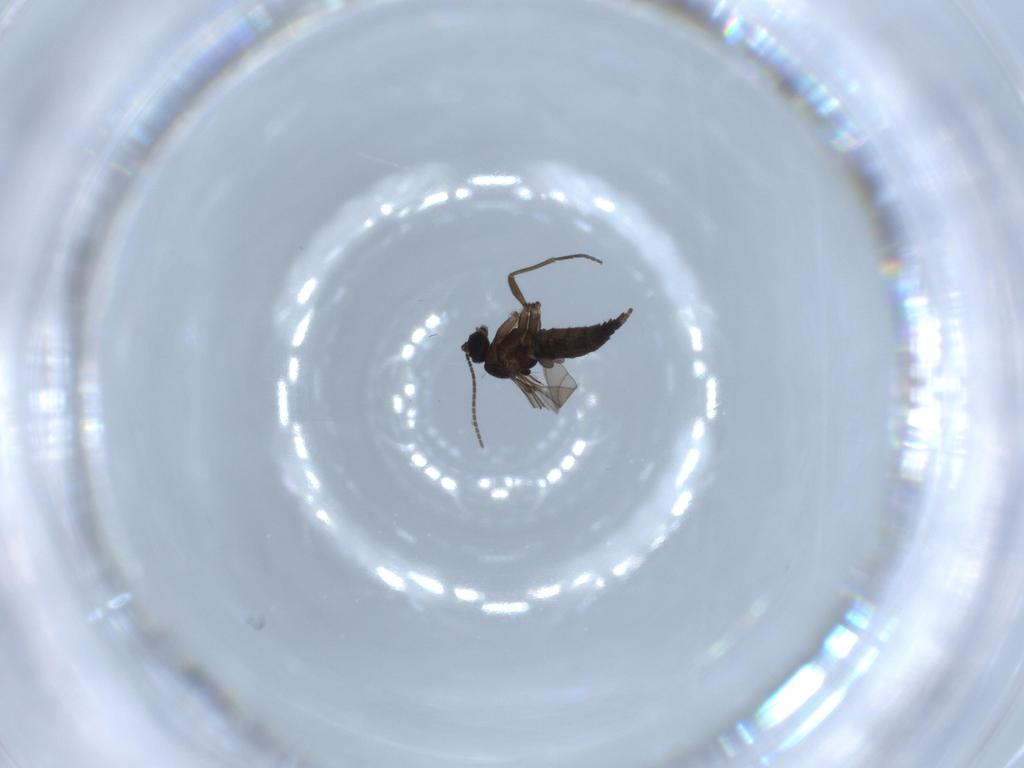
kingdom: Animalia
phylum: Arthropoda
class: Insecta
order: Diptera
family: Sciaridae
